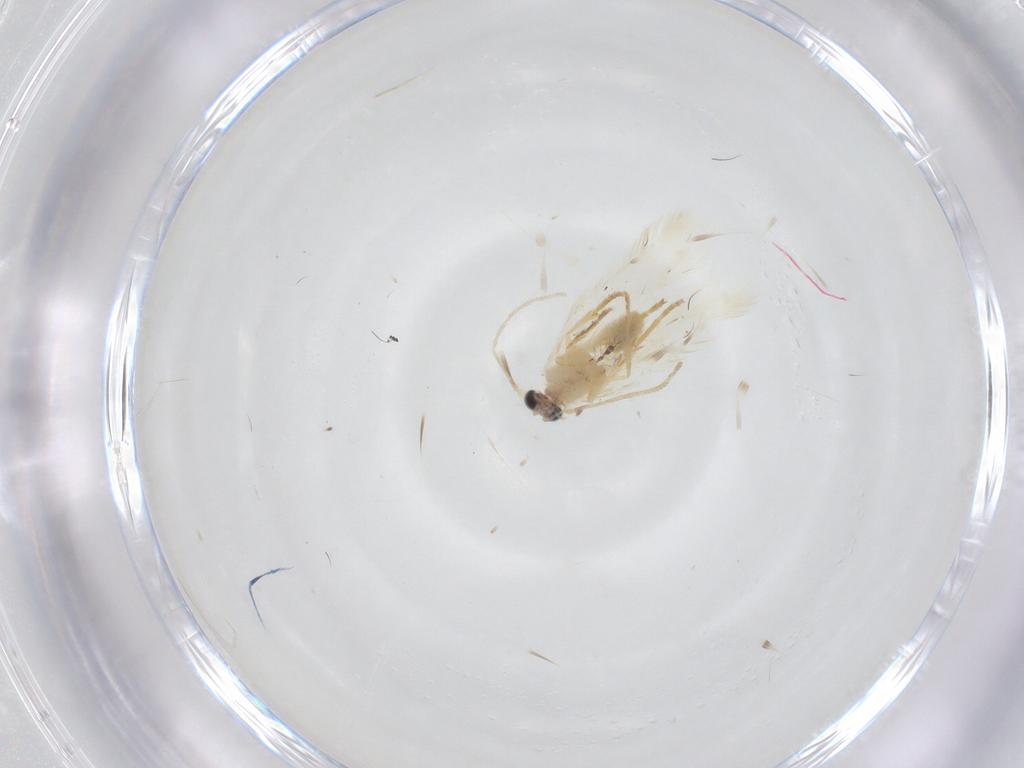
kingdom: Animalia
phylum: Arthropoda
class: Insecta
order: Lepidoptera
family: Nepticulidae
